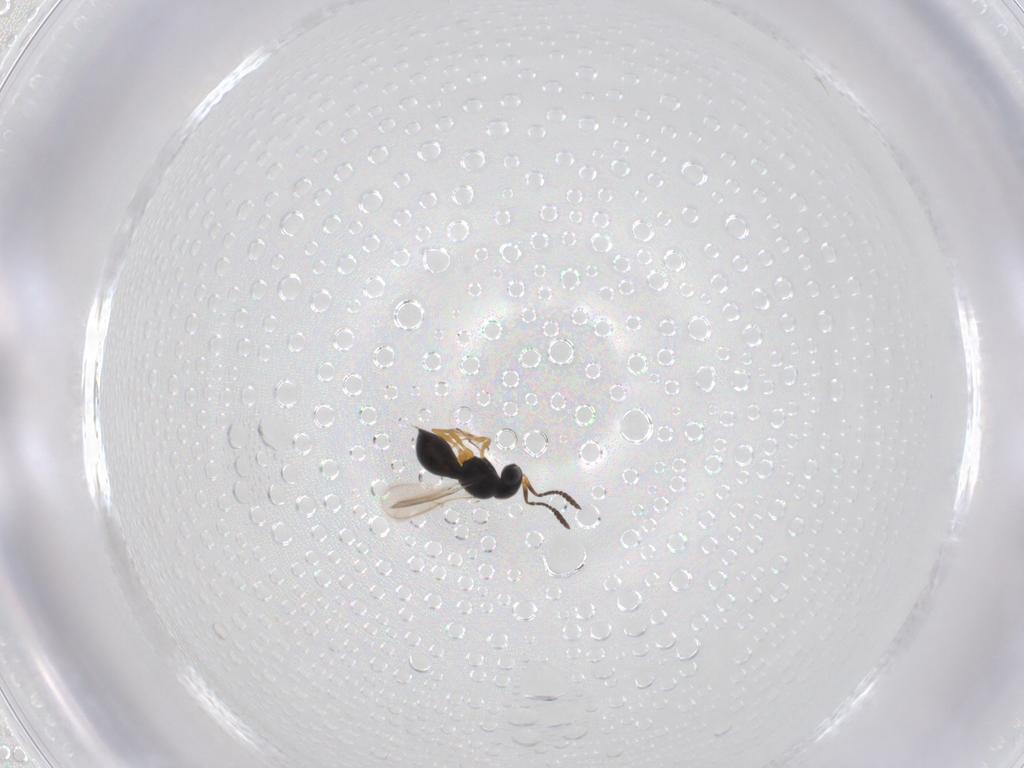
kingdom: Animalia
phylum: Arthropoda
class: Insecta
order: Hymenoptera
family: Scelionidae
